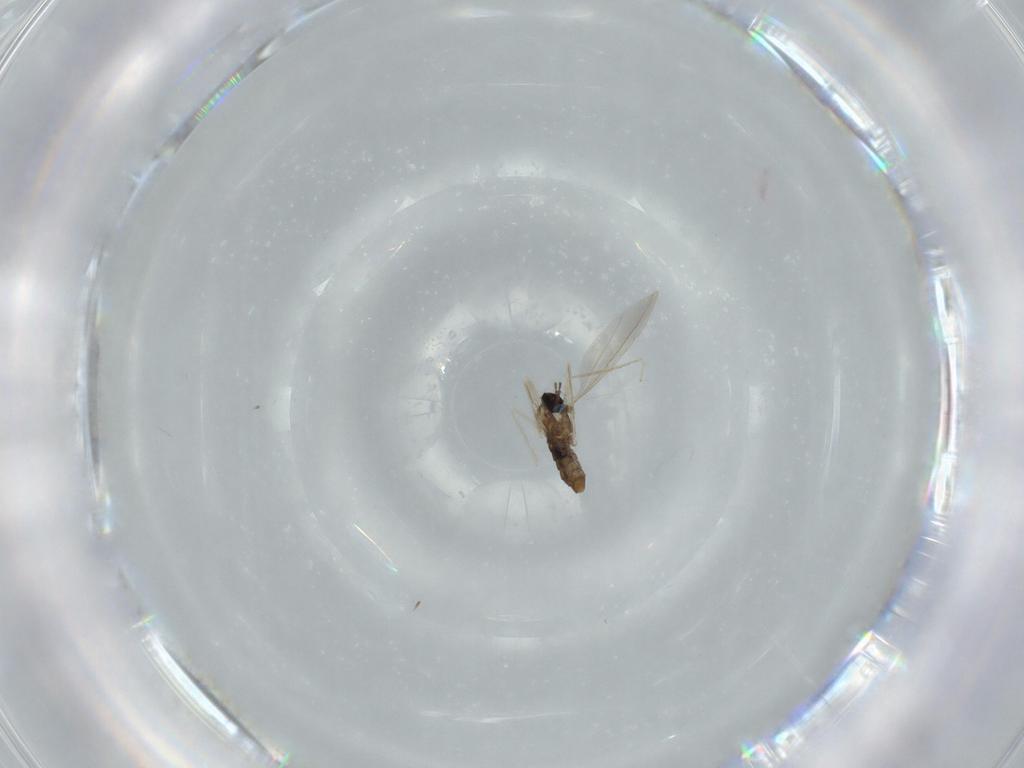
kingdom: Animalia
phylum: Arthropoda
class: Insecta
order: Diptera
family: Cecidomyiidae
